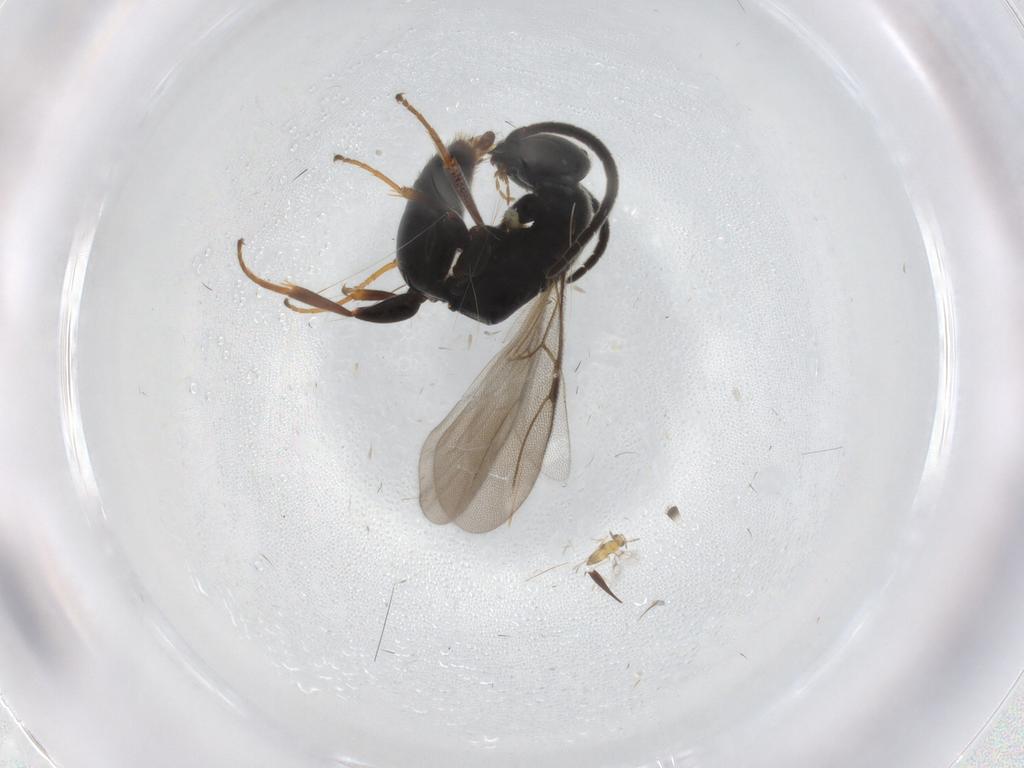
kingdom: Animalia
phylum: Arthropoda
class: Insecta
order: Hymenoptera
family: Bethylidae
